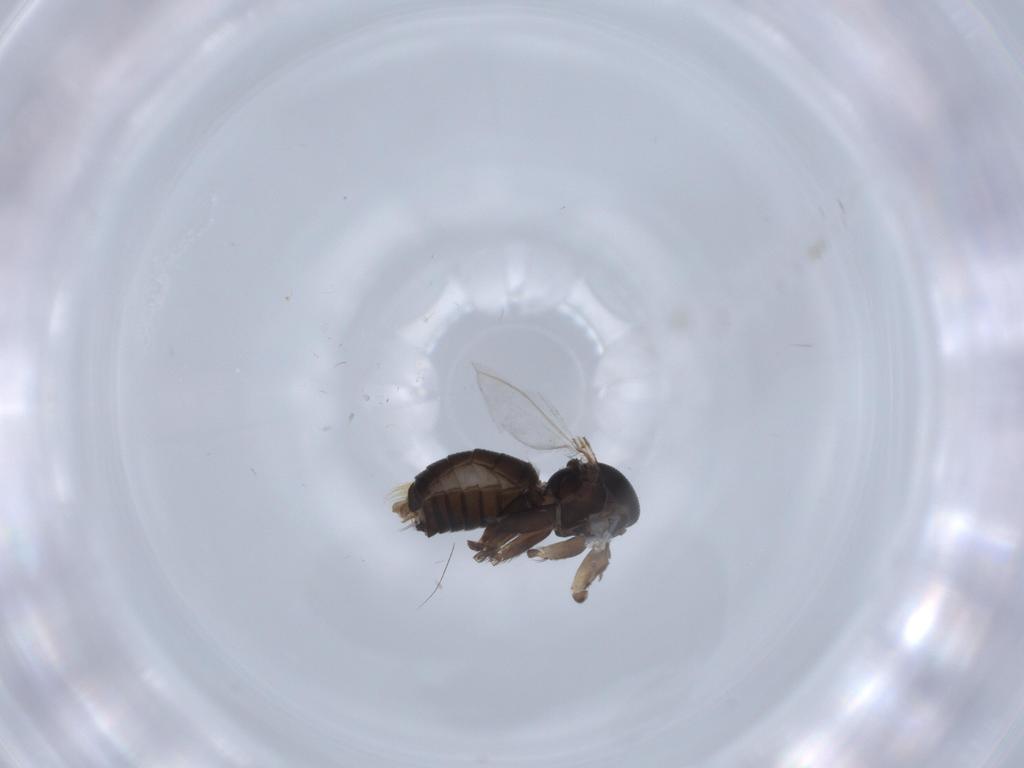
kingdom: Animalia
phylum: Arthropoda
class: Insecta
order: Diptera
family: Mycetophilidae
